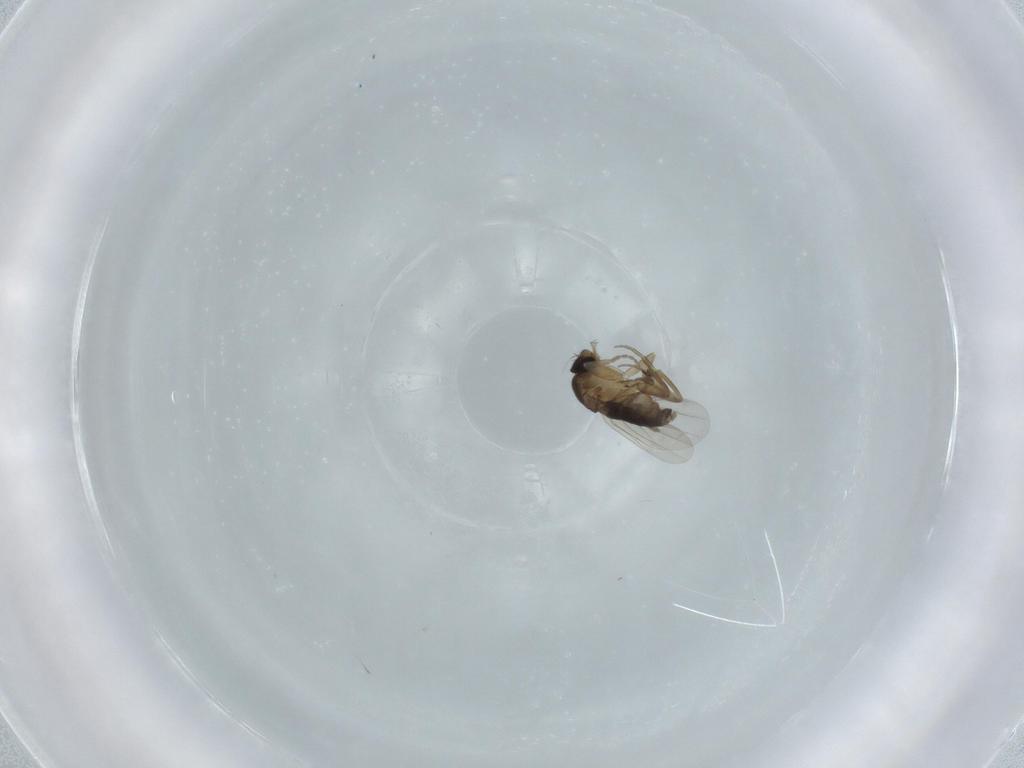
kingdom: Animalia
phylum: Arthropoda
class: Insecta
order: Diptera
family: Phoridae
